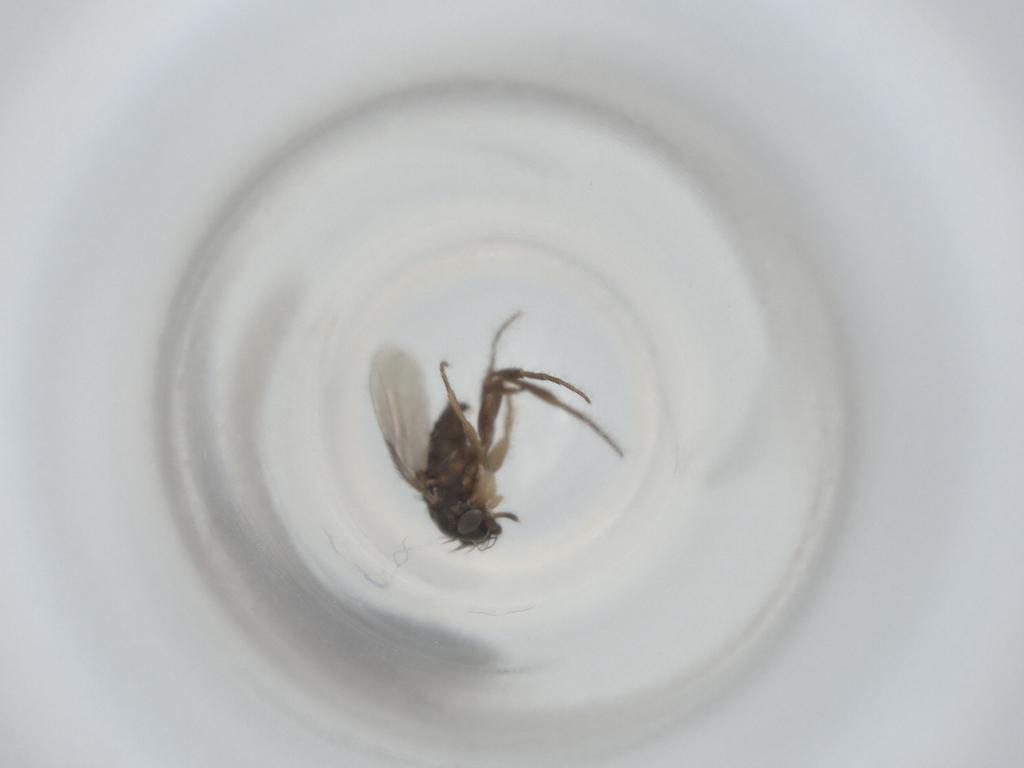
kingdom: Animalia
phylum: Arthropoda
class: Insecta
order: Diptera
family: Phoridae
